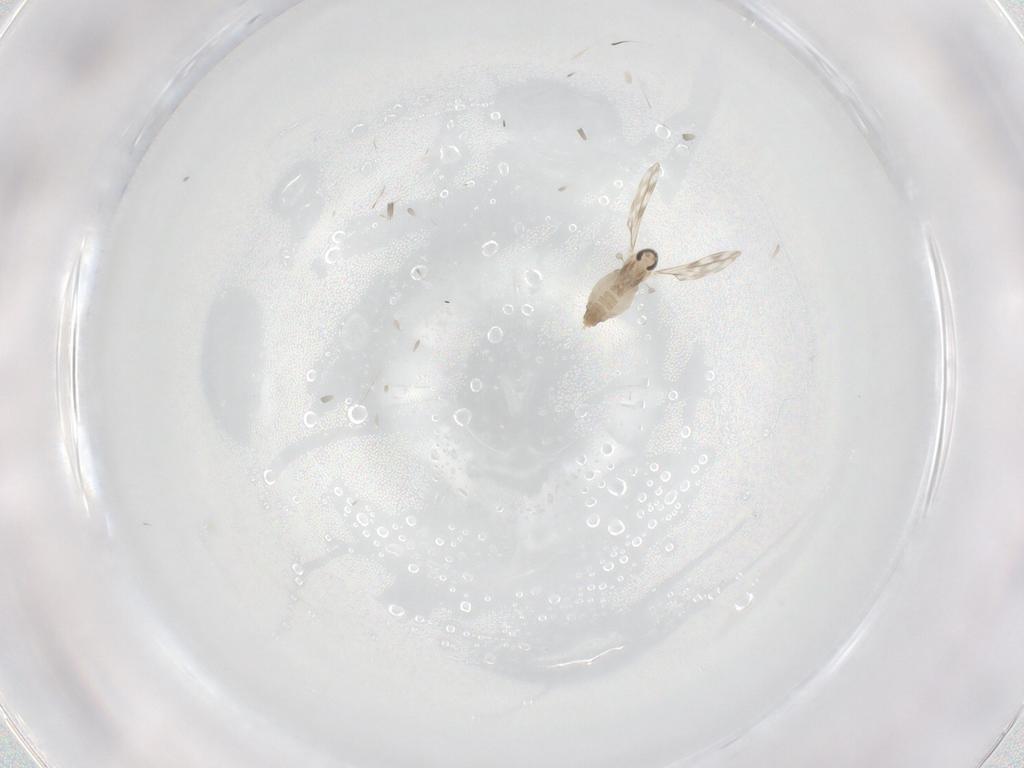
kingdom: Animalia
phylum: Arthropoda
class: Insecta
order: Diptera
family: Cecidomyiidae
